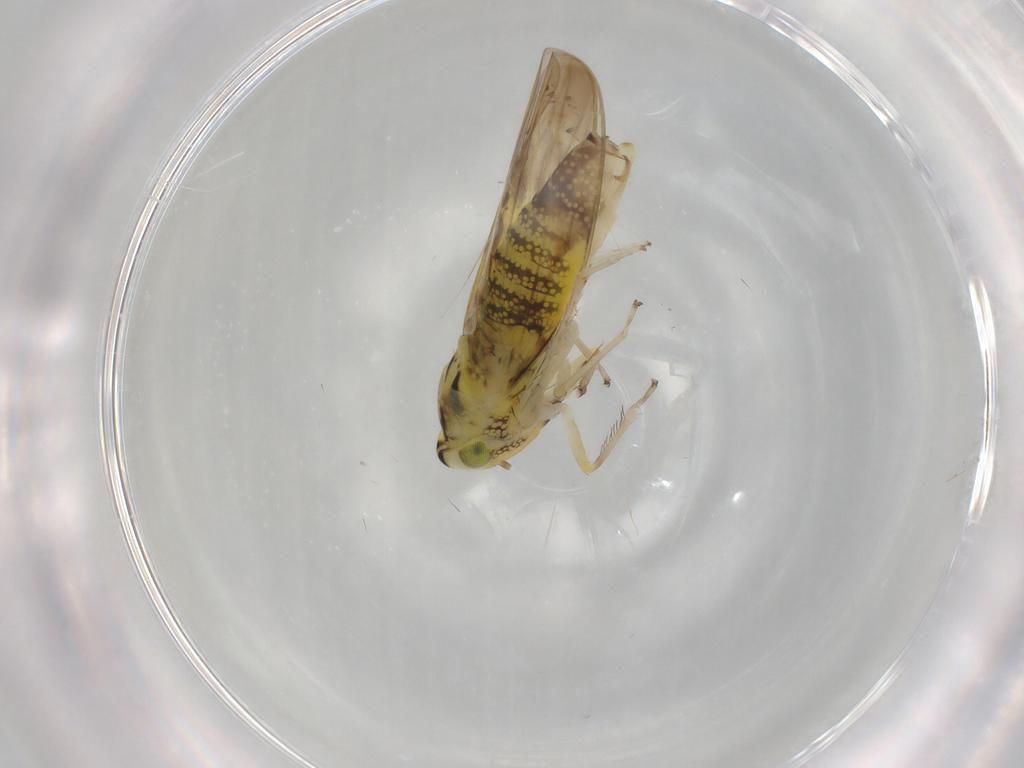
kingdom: Animalia
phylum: Arthropoda
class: Insecta
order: Hemiptera
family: Cicadellidae
